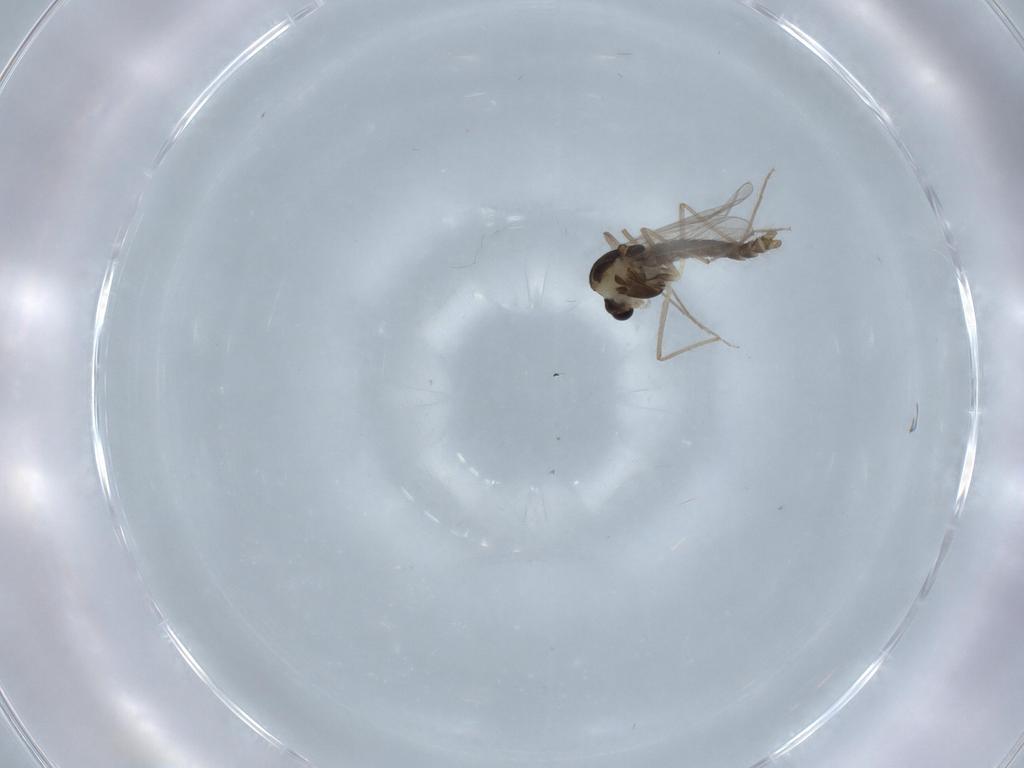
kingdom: Animalia
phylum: Arthropoda
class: Insecta
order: Diptera
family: Chironomidae
